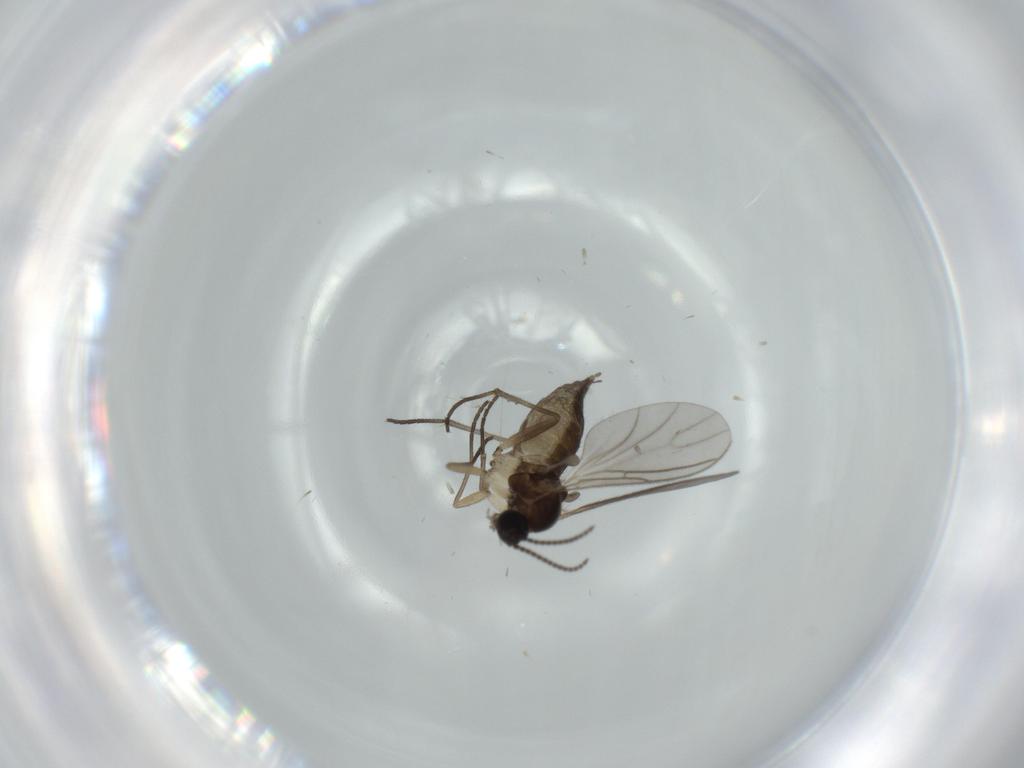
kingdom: Animalia
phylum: Arthropoda
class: Insecta
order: Diptera
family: Sciaridae
